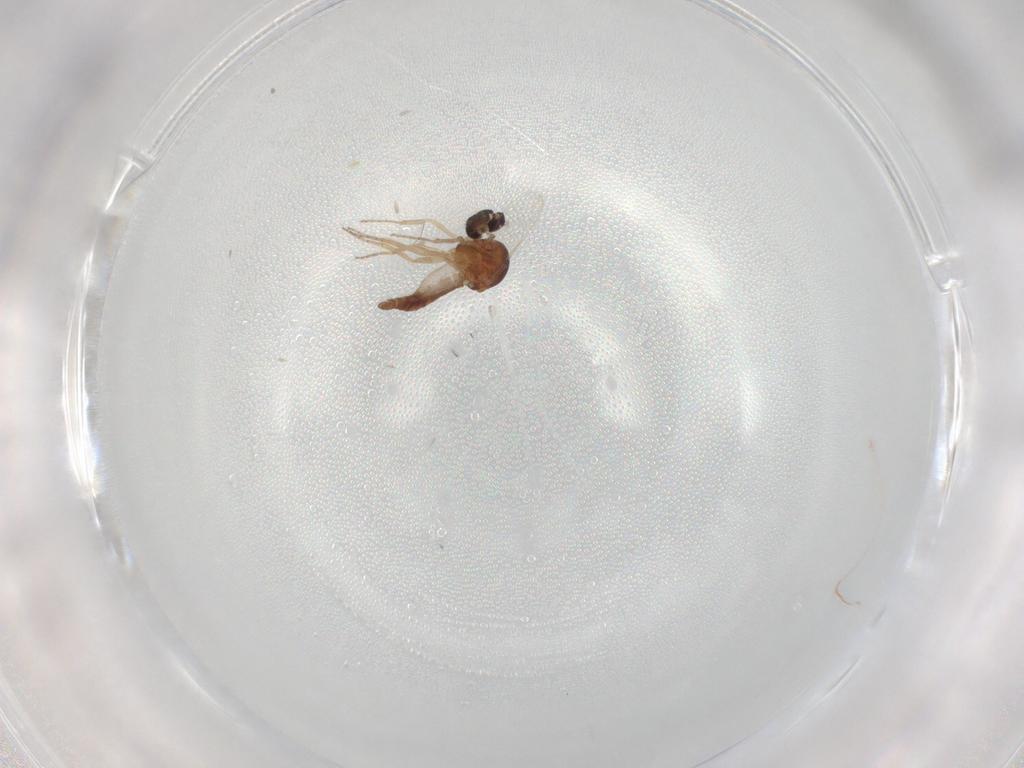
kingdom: Animalia
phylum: Arthropoda
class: Insecta
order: Diptera
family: Ceratopogonidae
